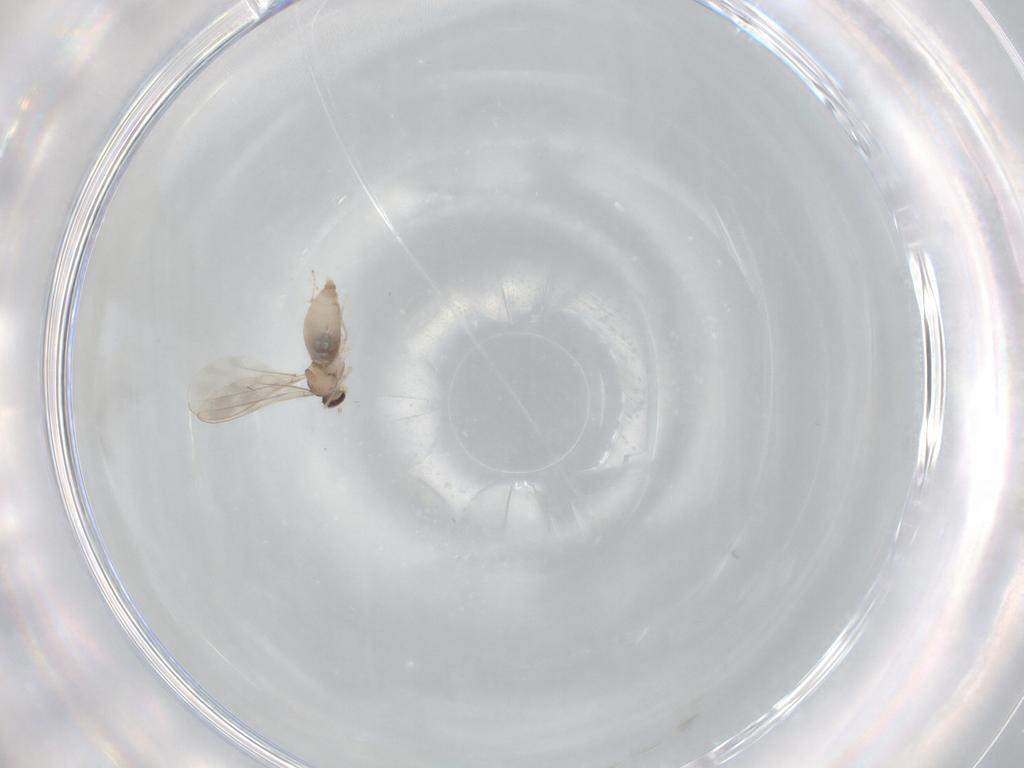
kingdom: Animalia
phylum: Arthropoda
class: Insecta
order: Diptera
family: Cecidomyiidae
